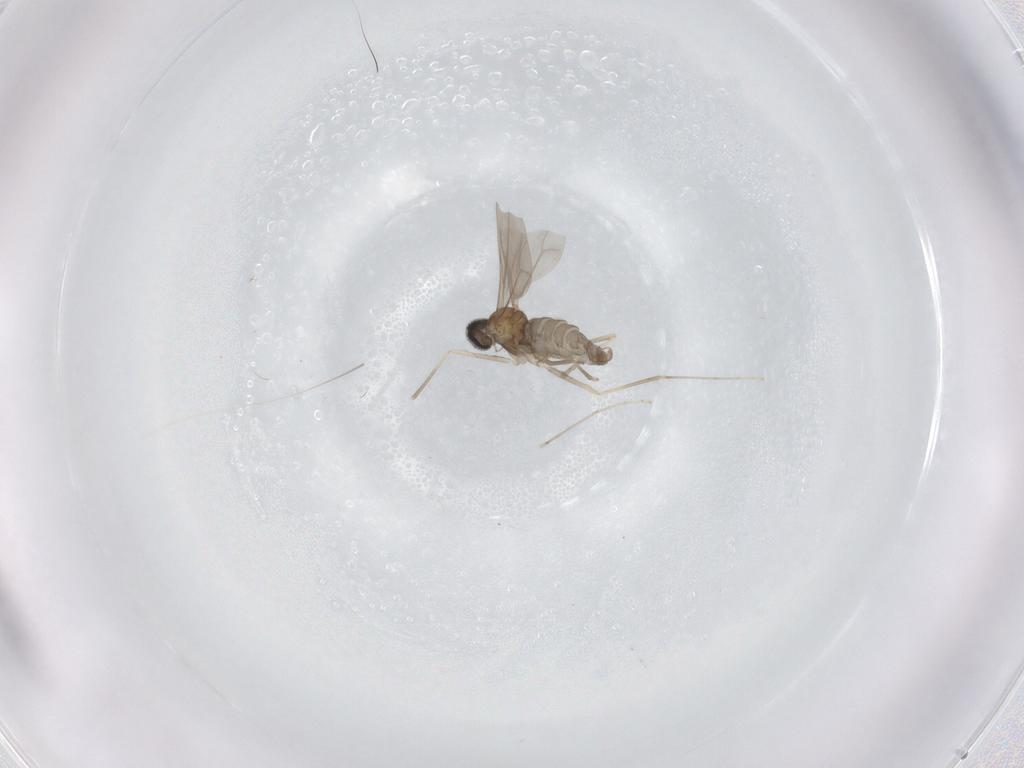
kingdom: Animalia
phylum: Arthropoda
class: Insecta
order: Diptera
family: Cecidomyiidae
